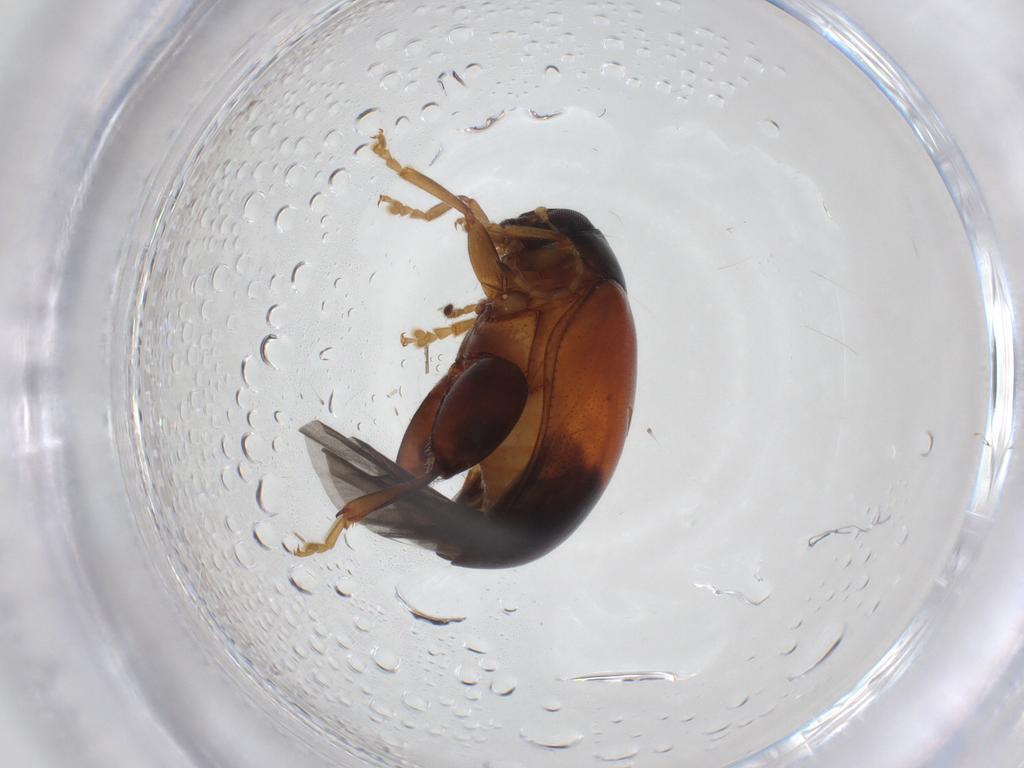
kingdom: Animalia
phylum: Arthropoda
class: Insecta
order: Coleoptera
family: Chrysomelidae
